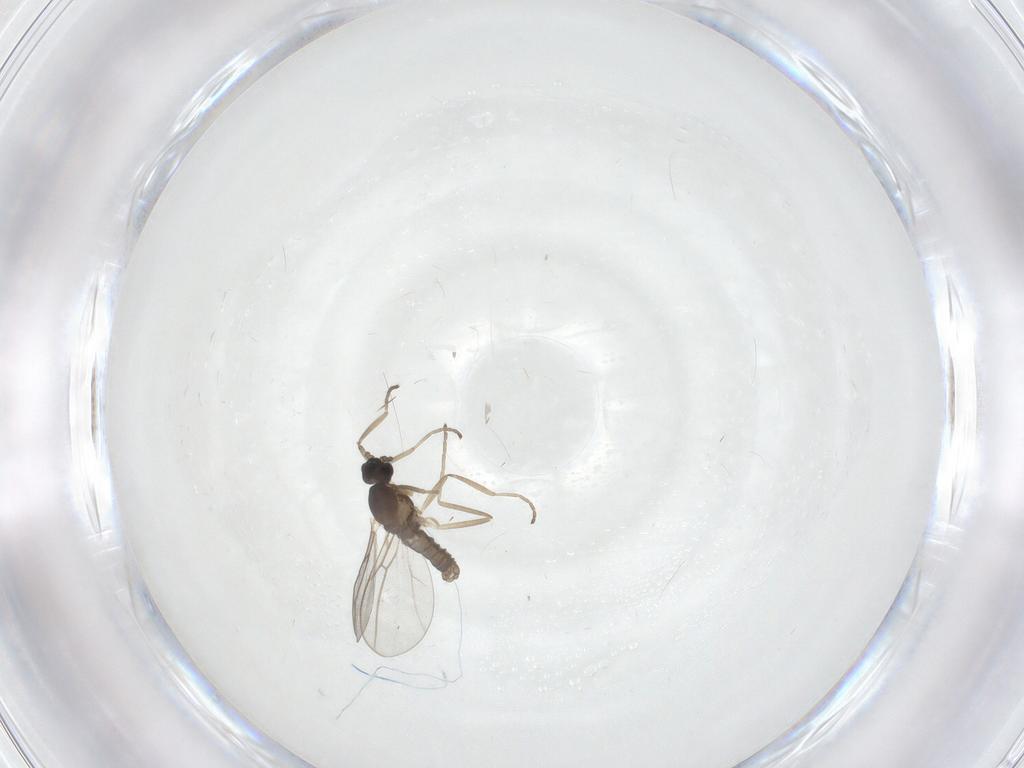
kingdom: Animalia
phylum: Arthropoda
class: Insecta
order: Diptera
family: Cecidomyiidae
